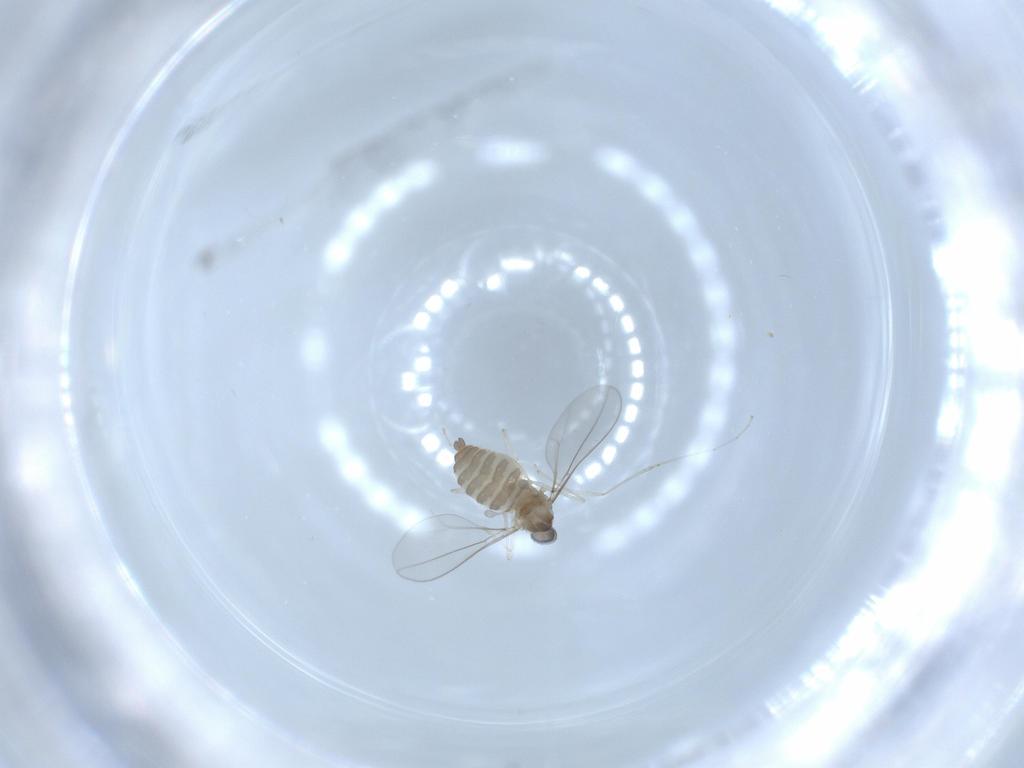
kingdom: Animalia
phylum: Arthropoda
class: Insecta
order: Diptera
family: Cecidomyiidae
